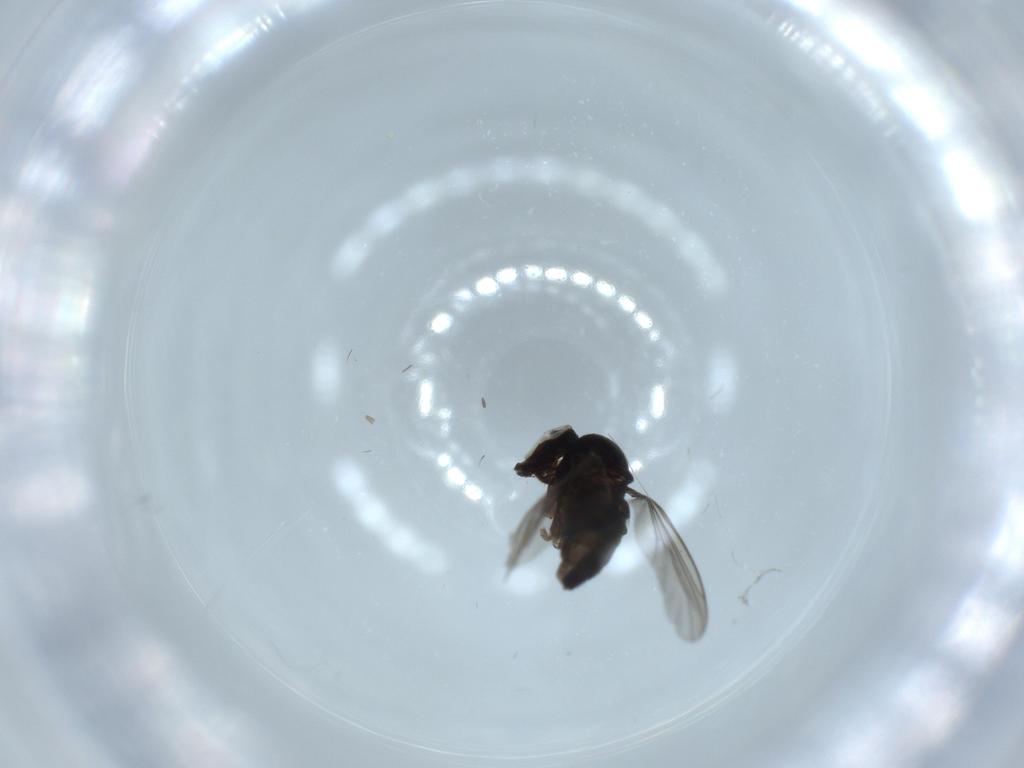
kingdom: Animalia
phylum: Arthropoda
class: Insecta
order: Diptera
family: Dolichopodidae
